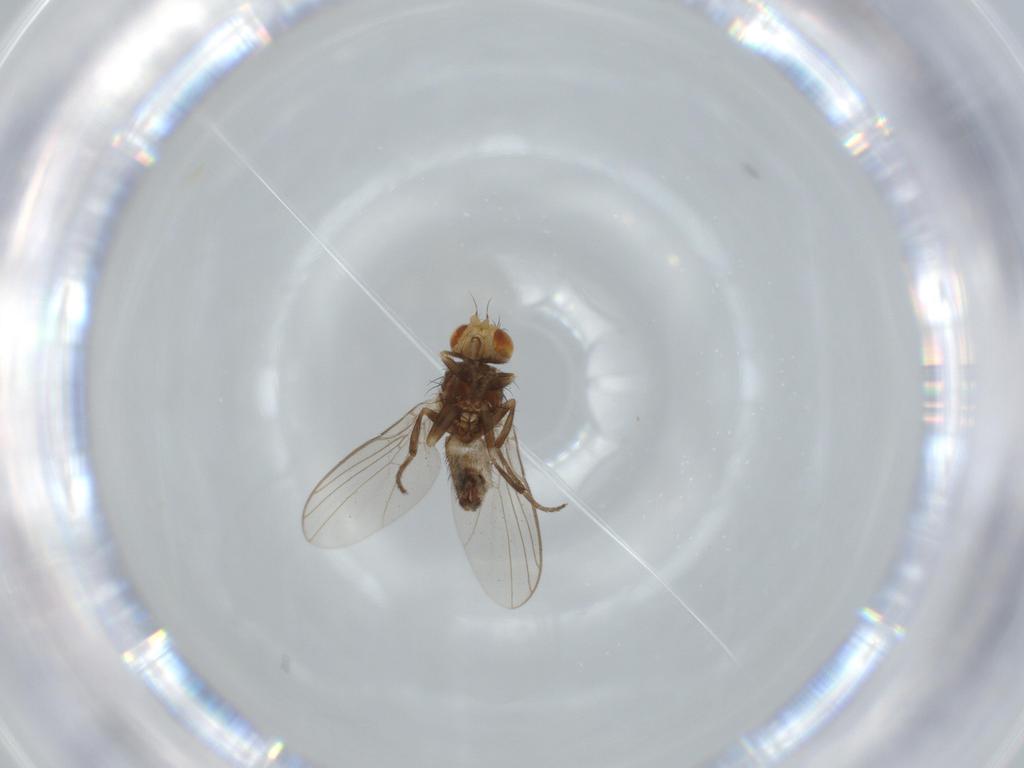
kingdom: Animalia
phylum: Arthropoda
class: Insecta
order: Diptera
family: Agromyzidae
